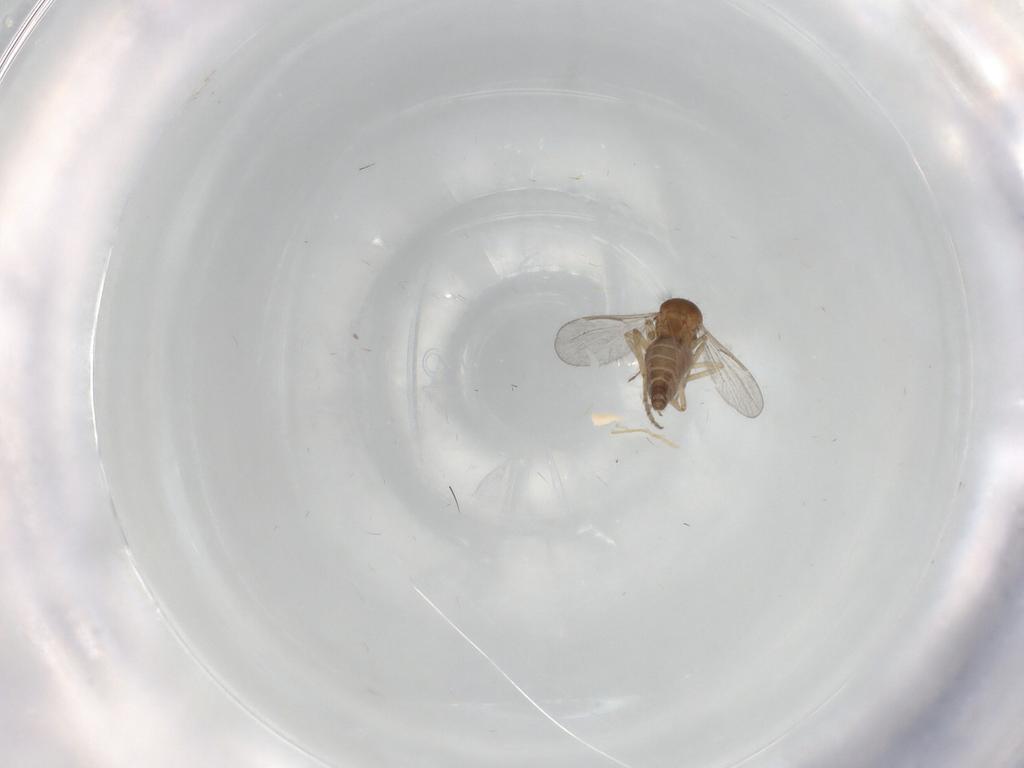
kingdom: Animalia
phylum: Arthropoda
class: Insecta
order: Diptera
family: Ceratopogonidae
